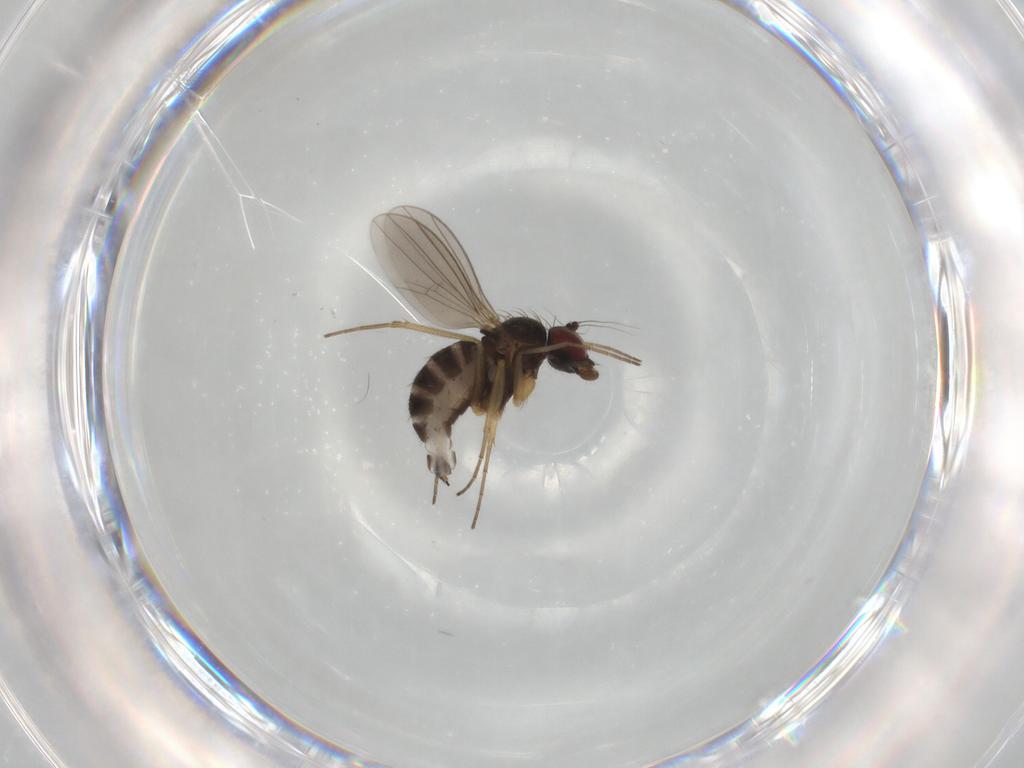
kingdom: Animalia
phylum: Arthropoda
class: Insecta
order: Diptera
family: Dolichopodidae
